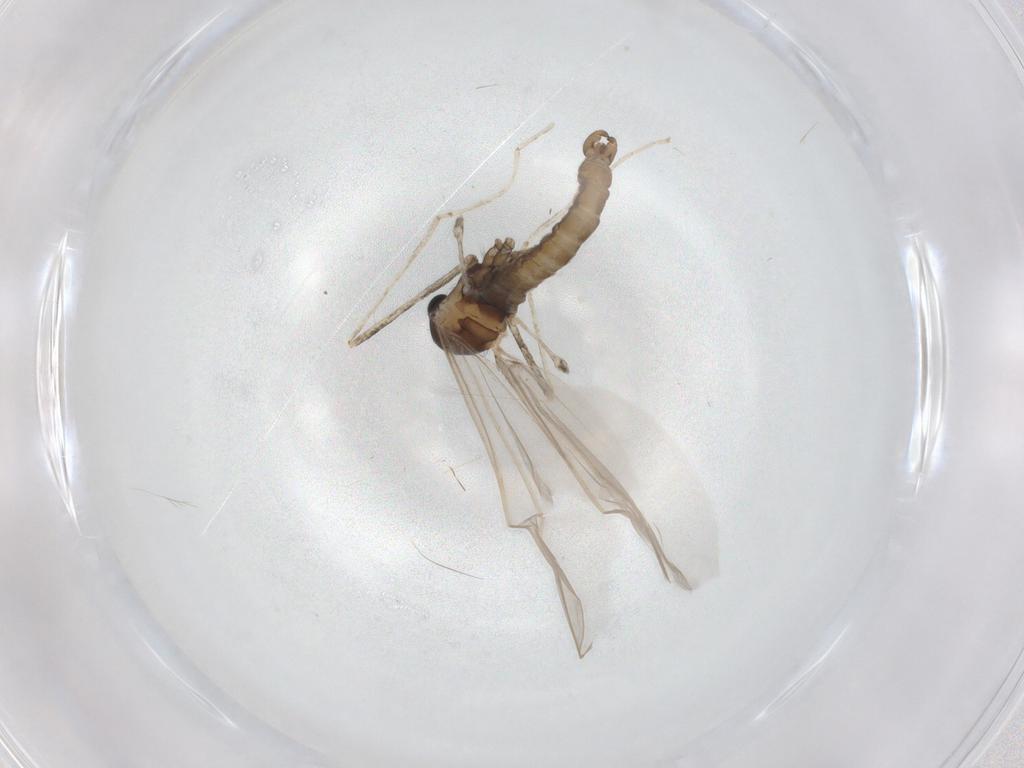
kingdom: Animalia
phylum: Arthropoda
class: Insecta
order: Diptera
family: Cecidomyiidae
